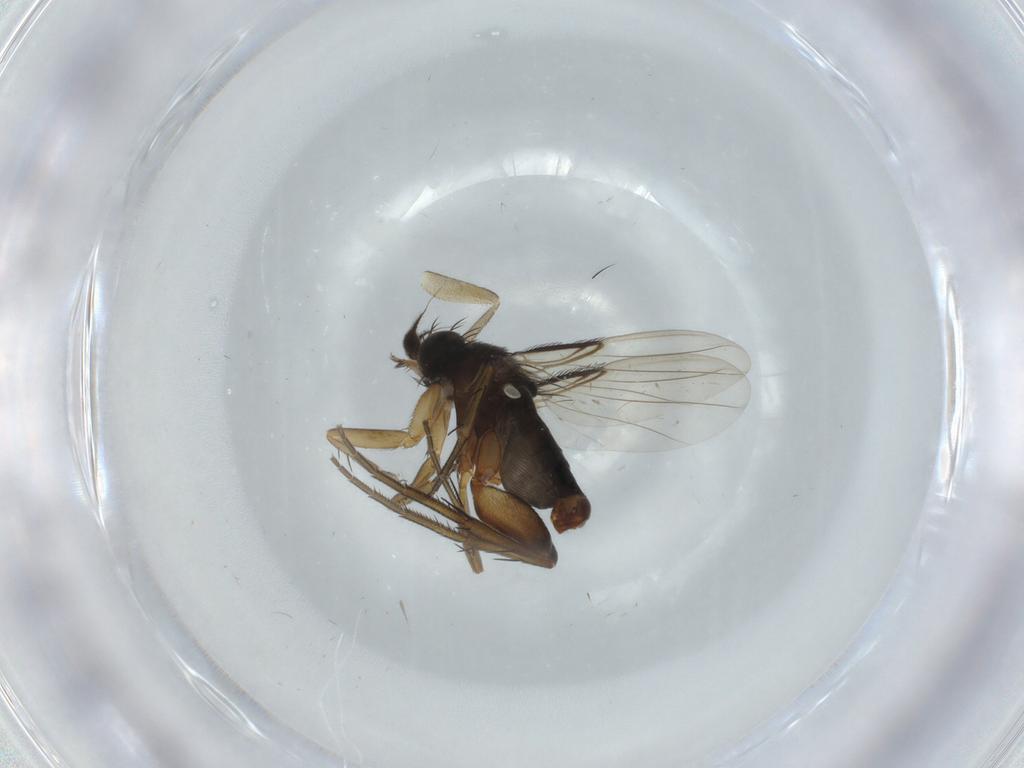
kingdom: Animalia
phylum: Arthropoda
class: Insecta
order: Diptera
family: Phoridae
